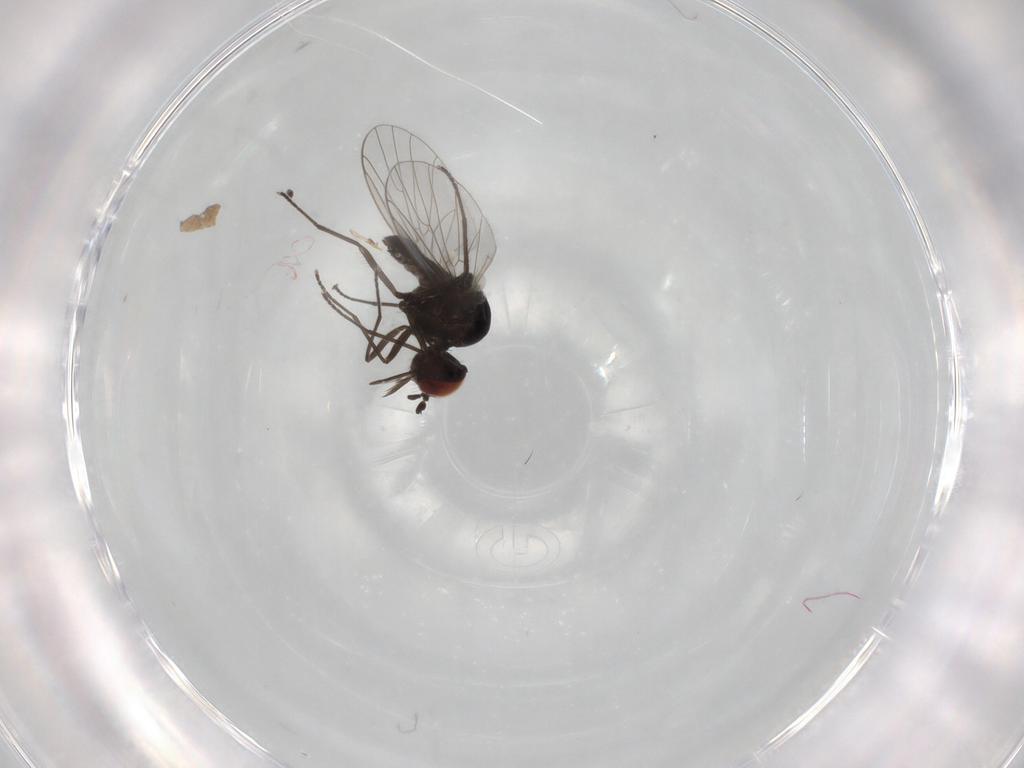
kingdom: Animalia
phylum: Arthropoda
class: Insecta
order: Diptera
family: Bombyliidae
